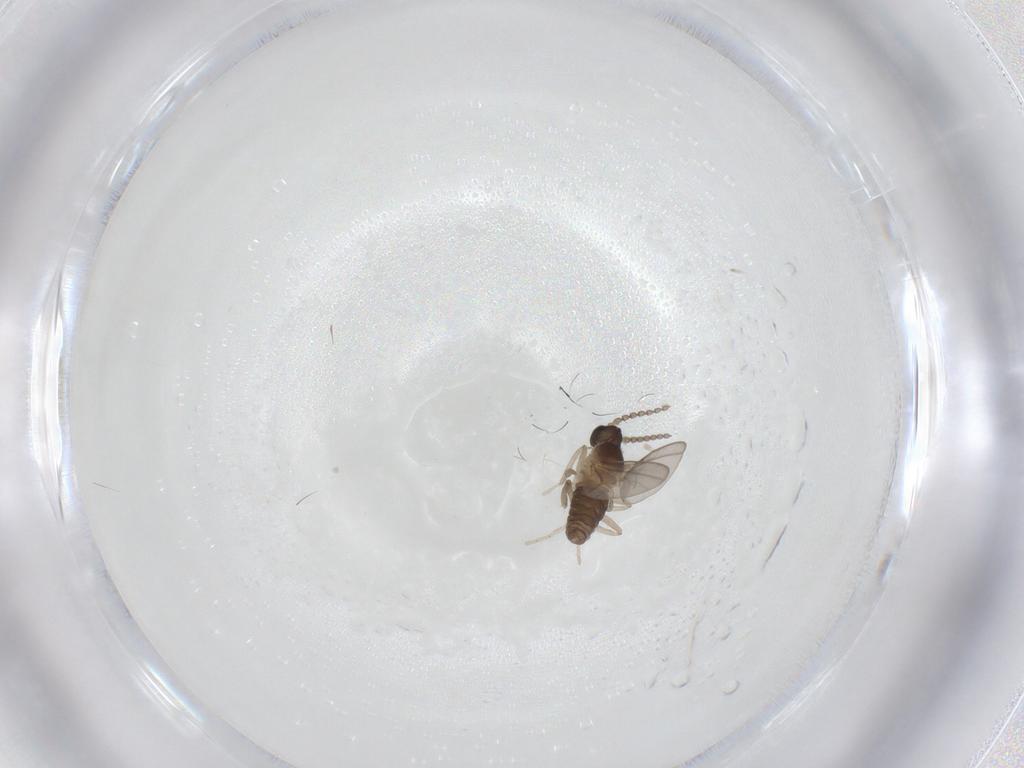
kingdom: Animalia
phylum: Arthropoda
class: Insecta
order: Diptera
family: Cecidomyiidae
